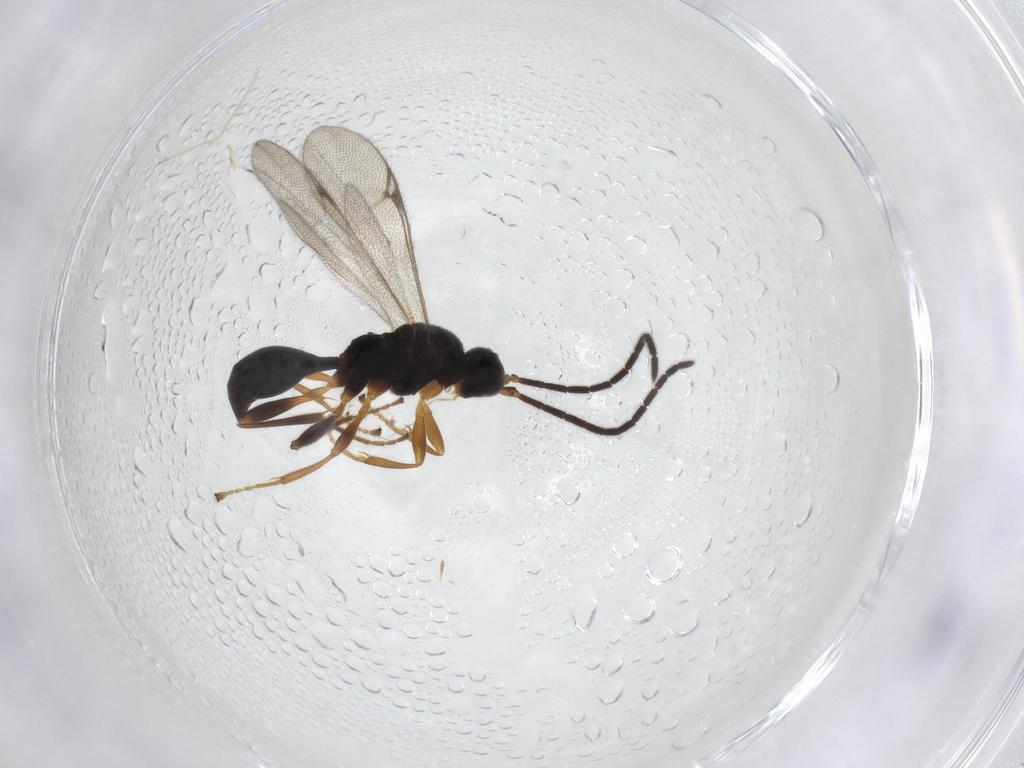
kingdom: Animalia
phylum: Arthropoda
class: Insecta
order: Hymenoptera
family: Proctotrupidae
